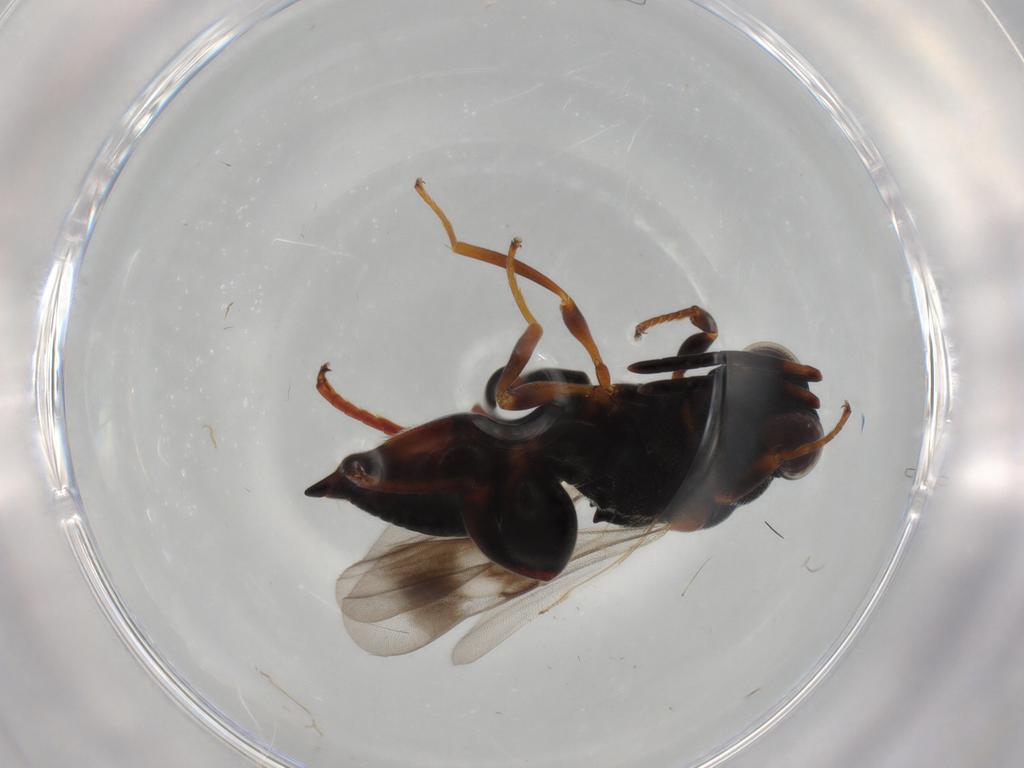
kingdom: Animalia
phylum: Arthropoda
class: Insecta
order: Hymenoptera
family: Chalcididae
